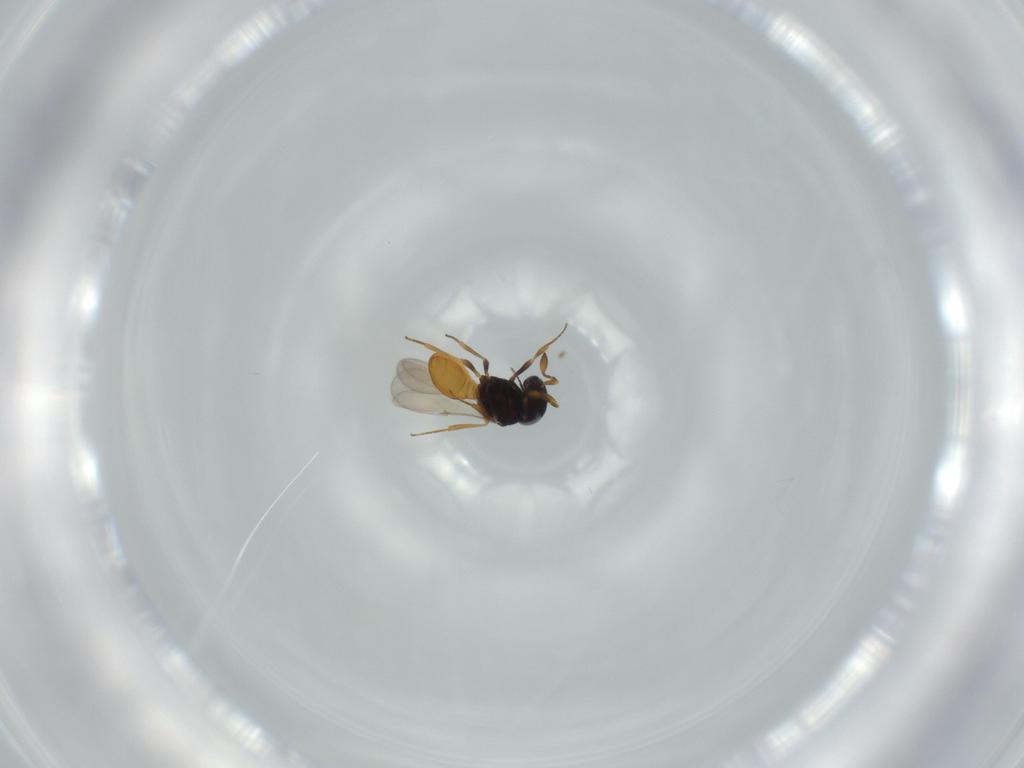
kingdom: Animalia
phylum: Arthropoda
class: Insecta
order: Hymenoptera
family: Scelionidae
